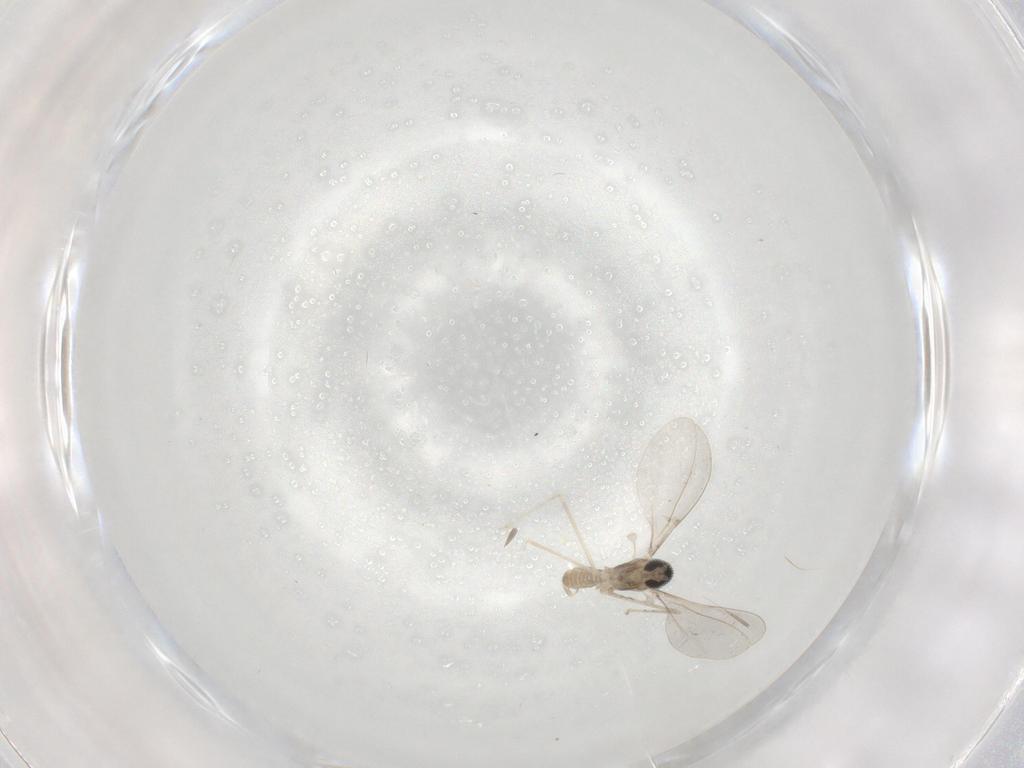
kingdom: Animalia
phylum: Arthropoda
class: Insecta
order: Diptera
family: Cecidomyiidae
